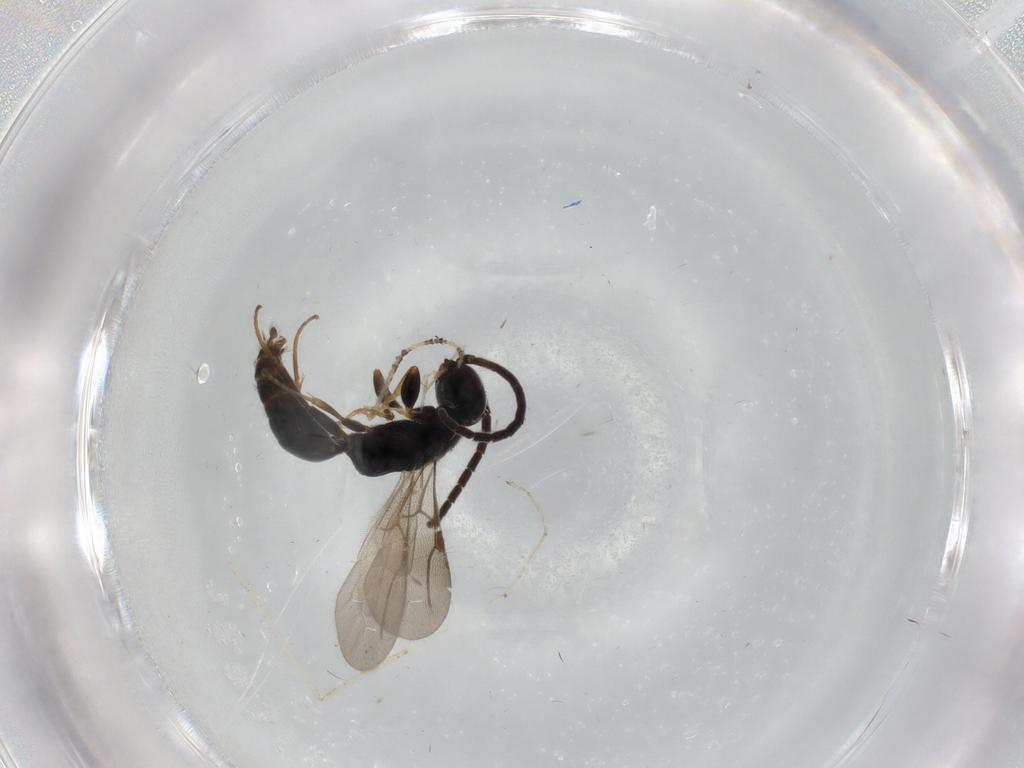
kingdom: Animalia
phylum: Arthropoda
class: Insecta
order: Hymenoptera
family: Bethylidae
